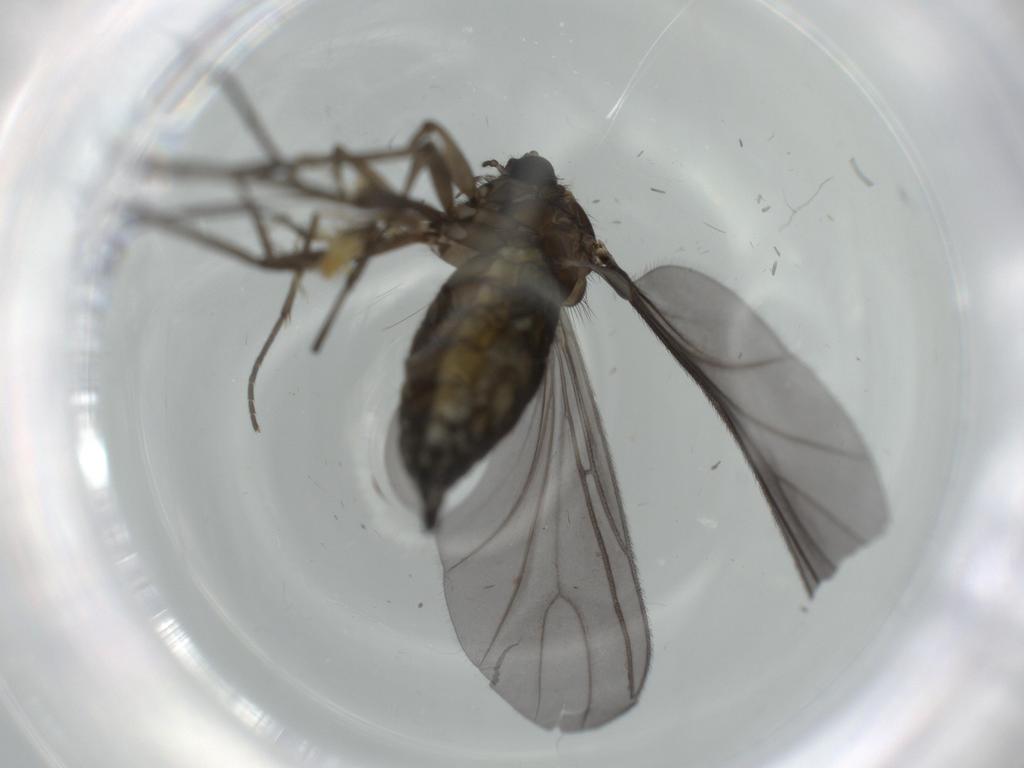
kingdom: Animalia
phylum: Arthropoda
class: Insecta
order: Diptera
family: Sciaridae
